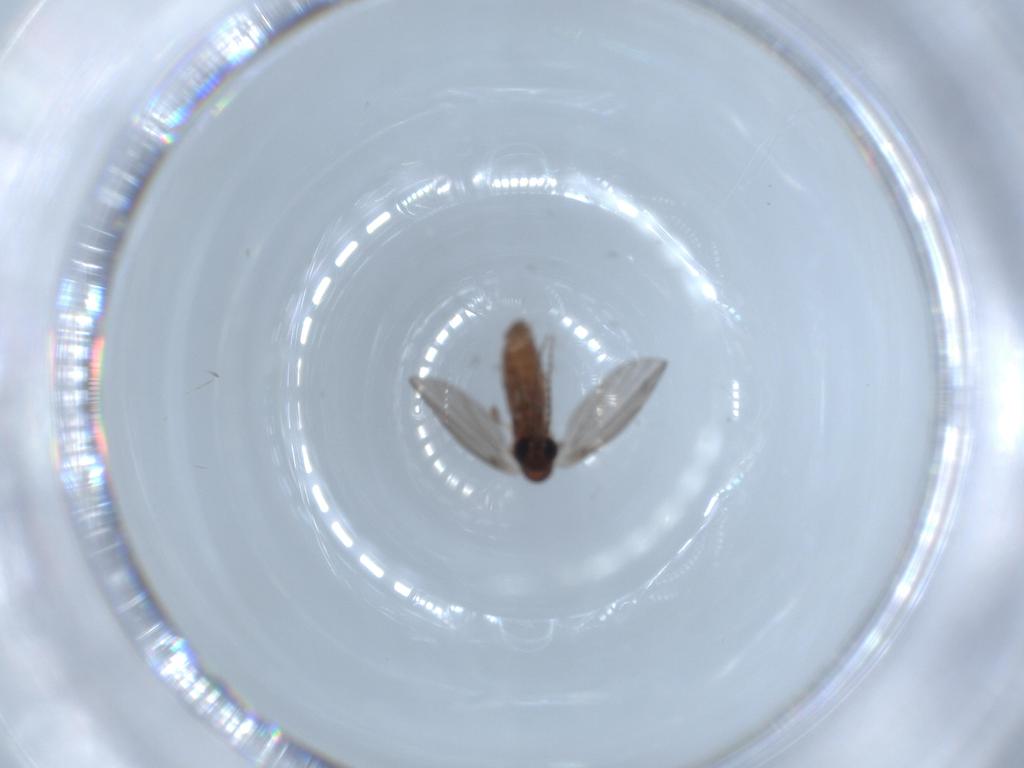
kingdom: Animalia
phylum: Arthropoda
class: Insecta
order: Diptera
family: Psychodidae
